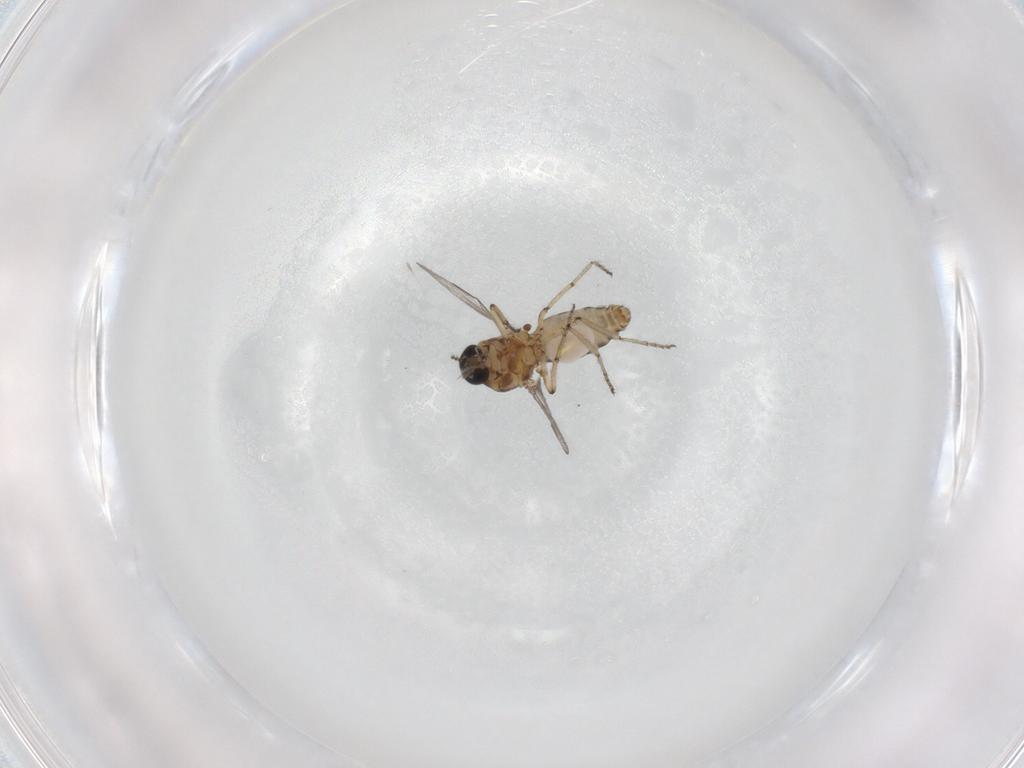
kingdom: Animalia
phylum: Arthropoda
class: Insecta
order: Diptera
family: Ceratopogonidae
